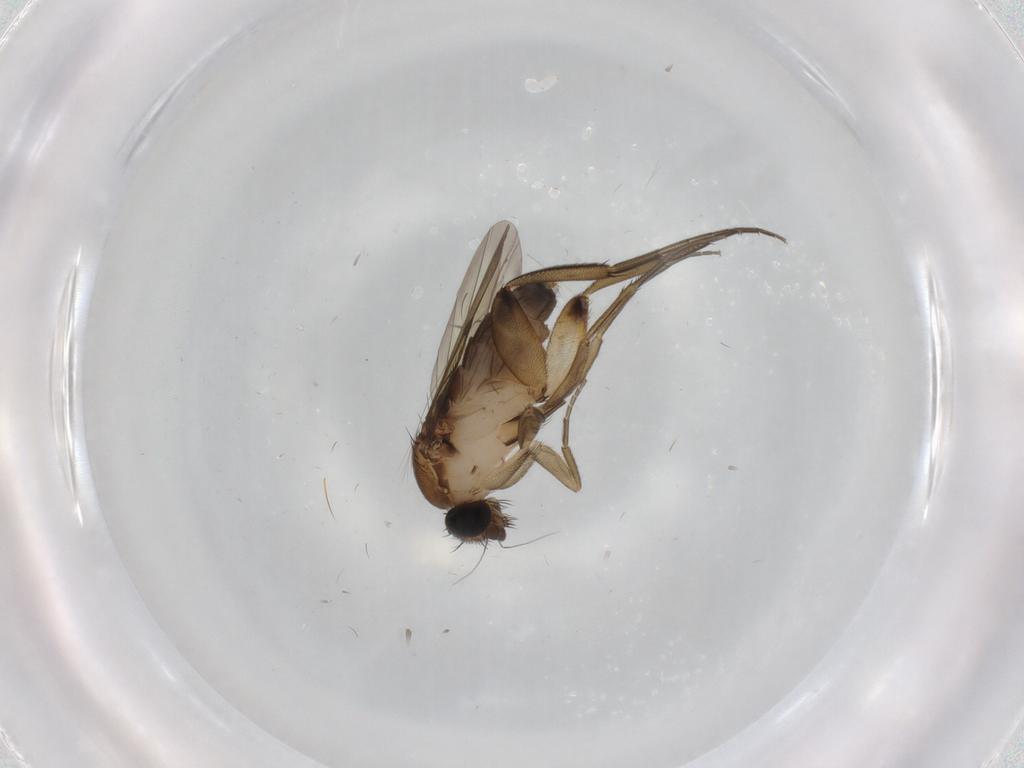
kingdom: Animalia
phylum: Arthropoda
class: Insecta
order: Diptera
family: Phoridae
